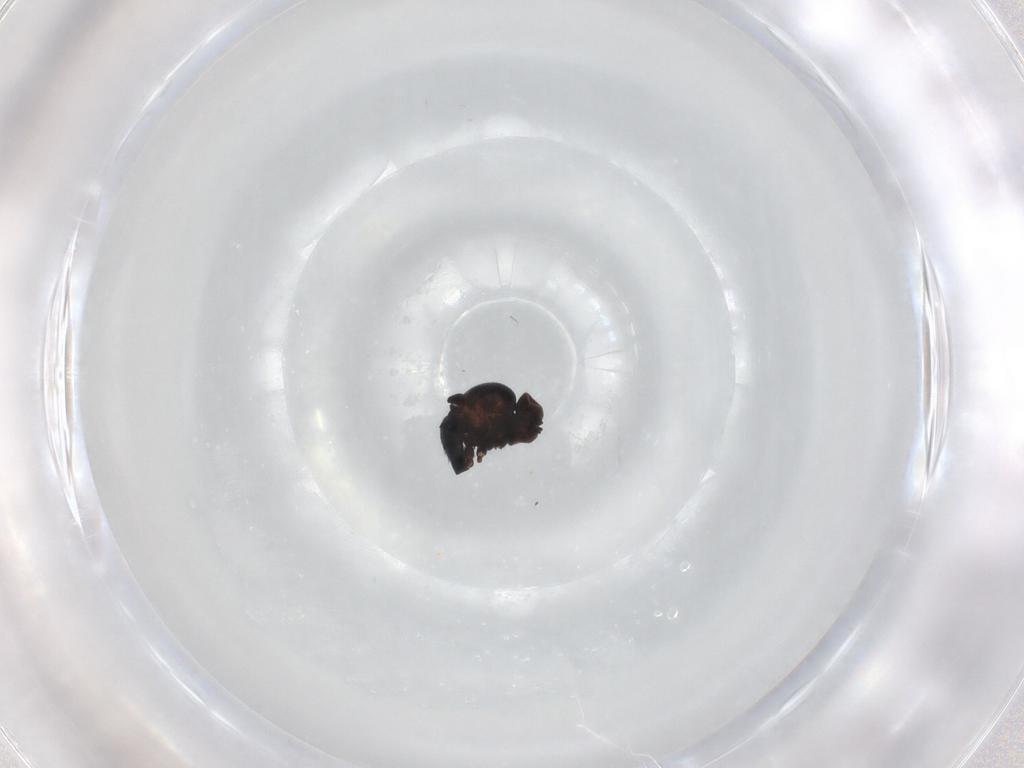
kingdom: Animalia
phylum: Arthropoda
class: Insecta
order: Diptera
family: Agromyzidae
